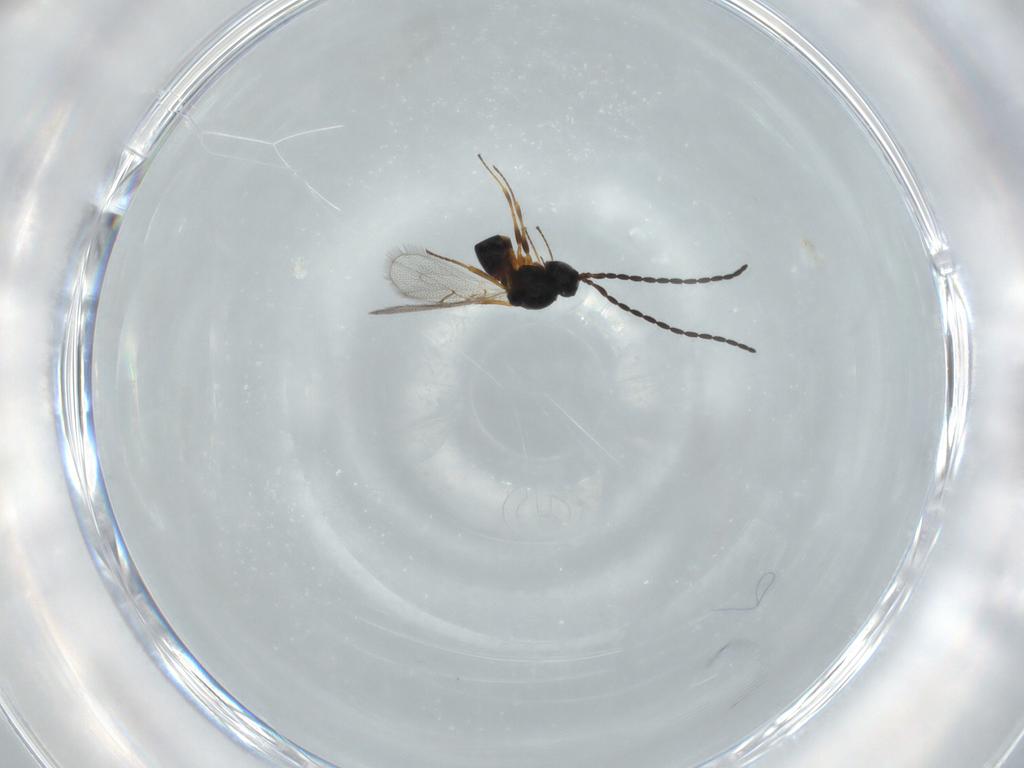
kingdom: Animalia
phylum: Arthropoda
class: Insecta
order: Hymenoptera
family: Figitidae
